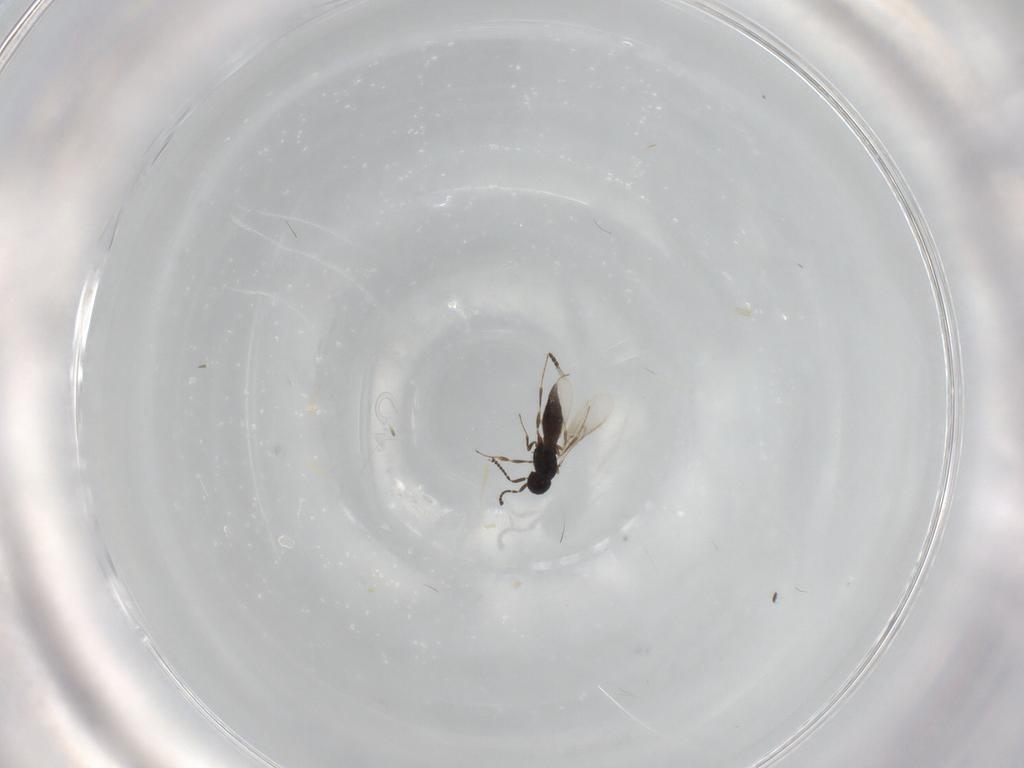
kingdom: Animalia
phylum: Arthropoda
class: Insecta
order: Hymenoptera
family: Scelionidae
